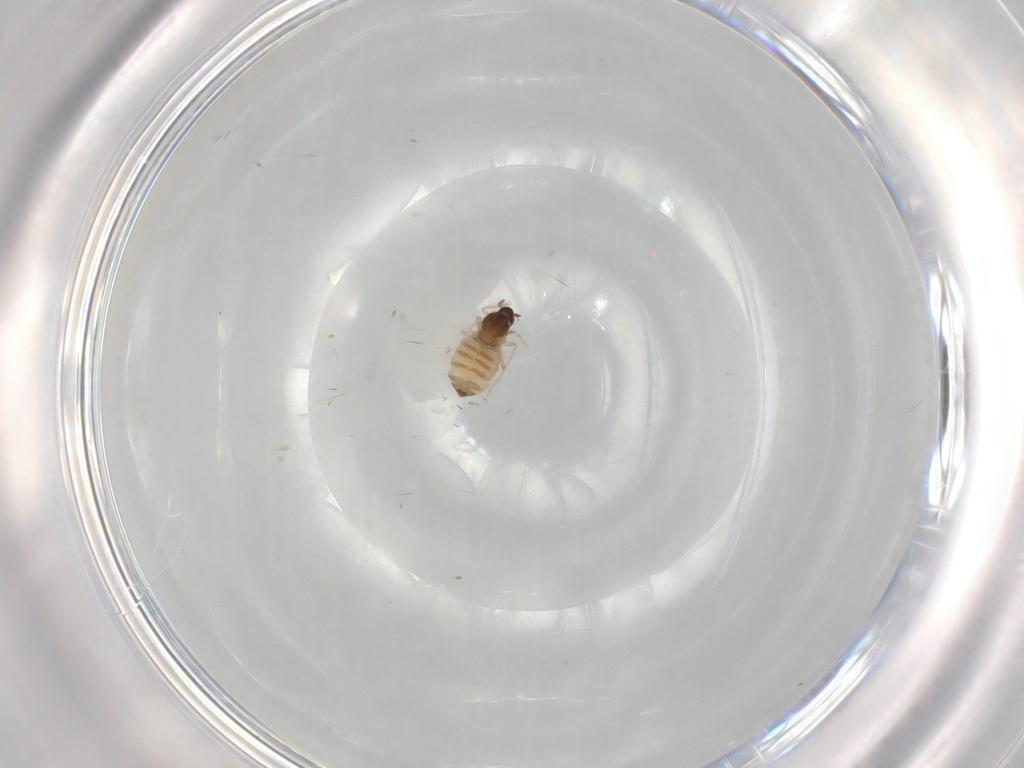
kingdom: Animalia
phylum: Arthropoda
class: Insecta
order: Diptera
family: Cecidomyiidae
